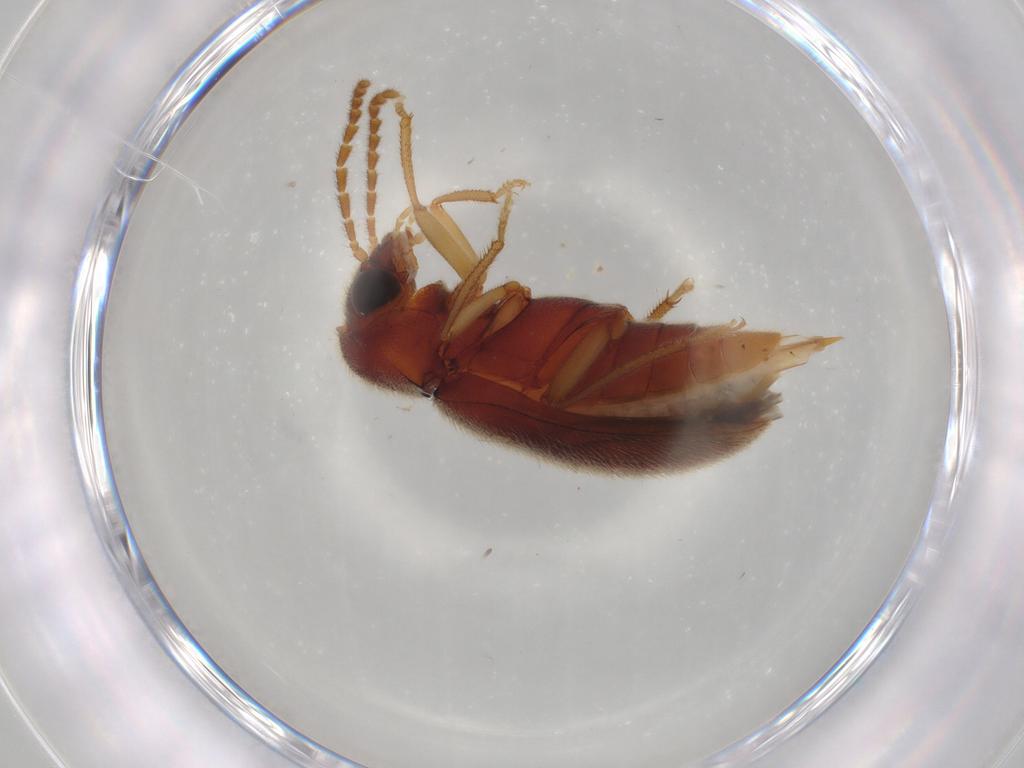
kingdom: Animalia
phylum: Arthropoda
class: Insecta
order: Coleoptera
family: Ptilodactylidae
